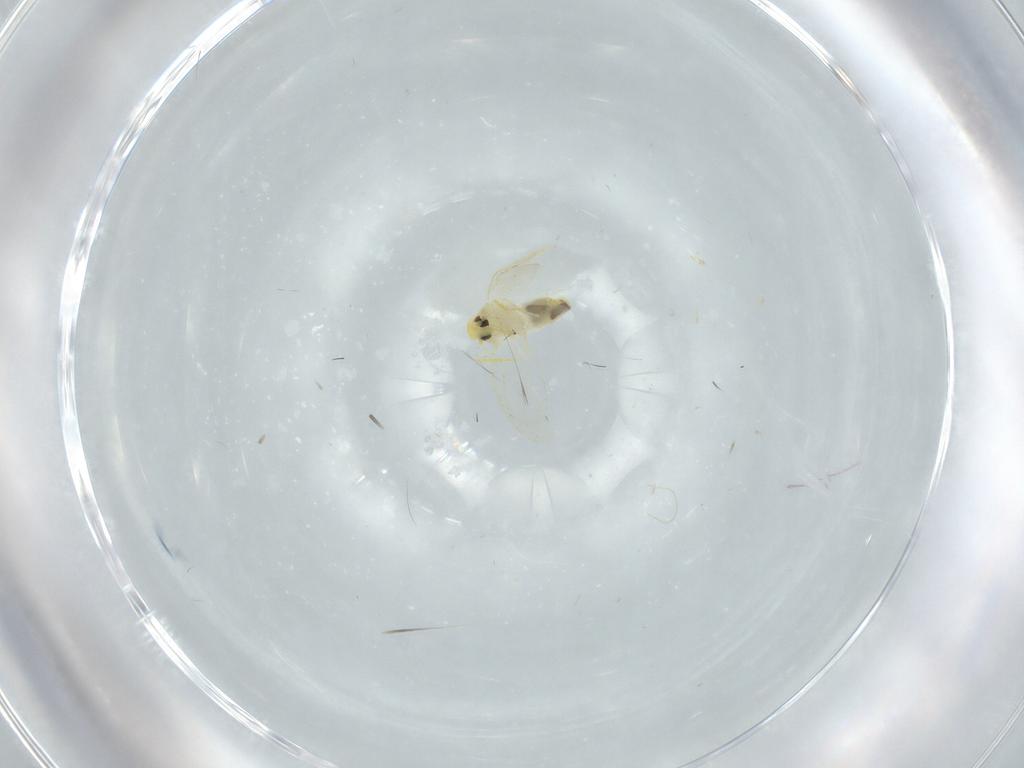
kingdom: Animalia
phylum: Arthropoda
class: Insecta
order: Hemiptera
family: Aleyrodidae
